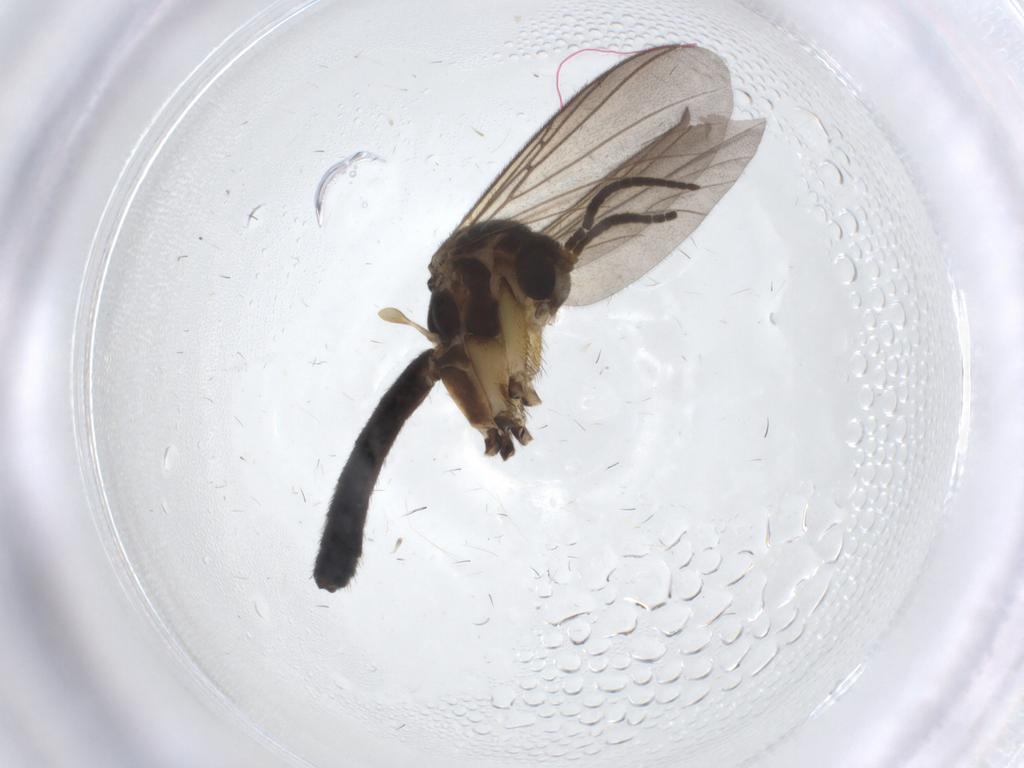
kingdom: Animalia
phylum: Arthropoda
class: Insecta
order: Diptera
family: Mycetophilidae
